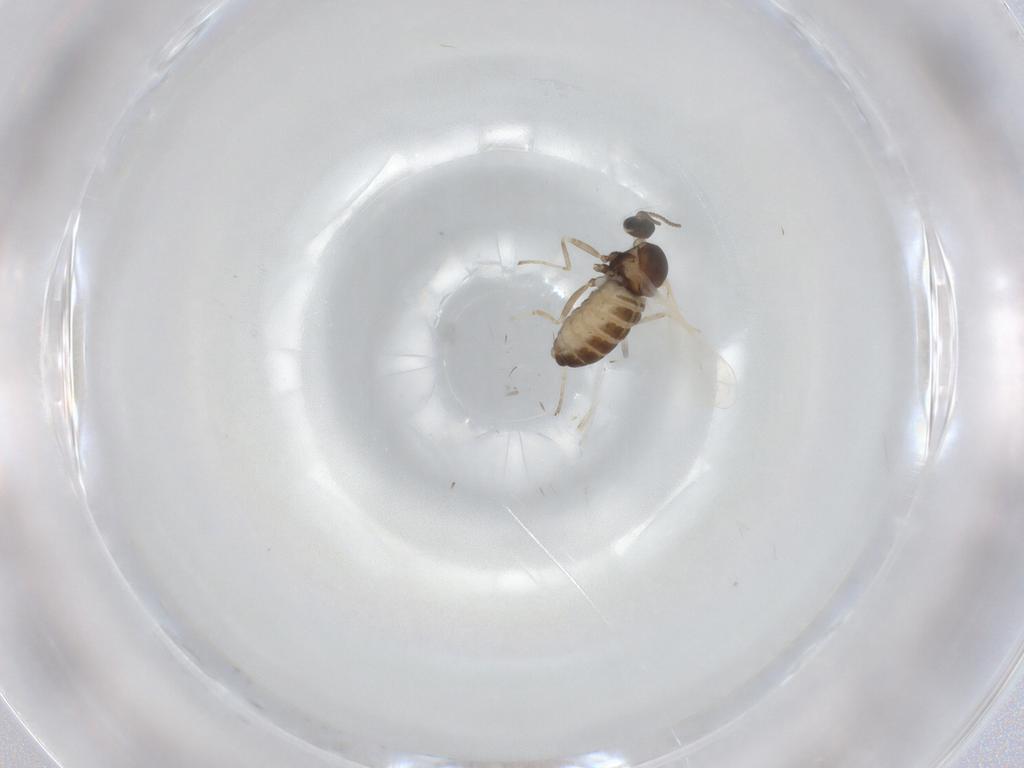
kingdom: Animalia
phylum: Arthropoda
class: Insecta
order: Diptera
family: Cecidomyiidae
